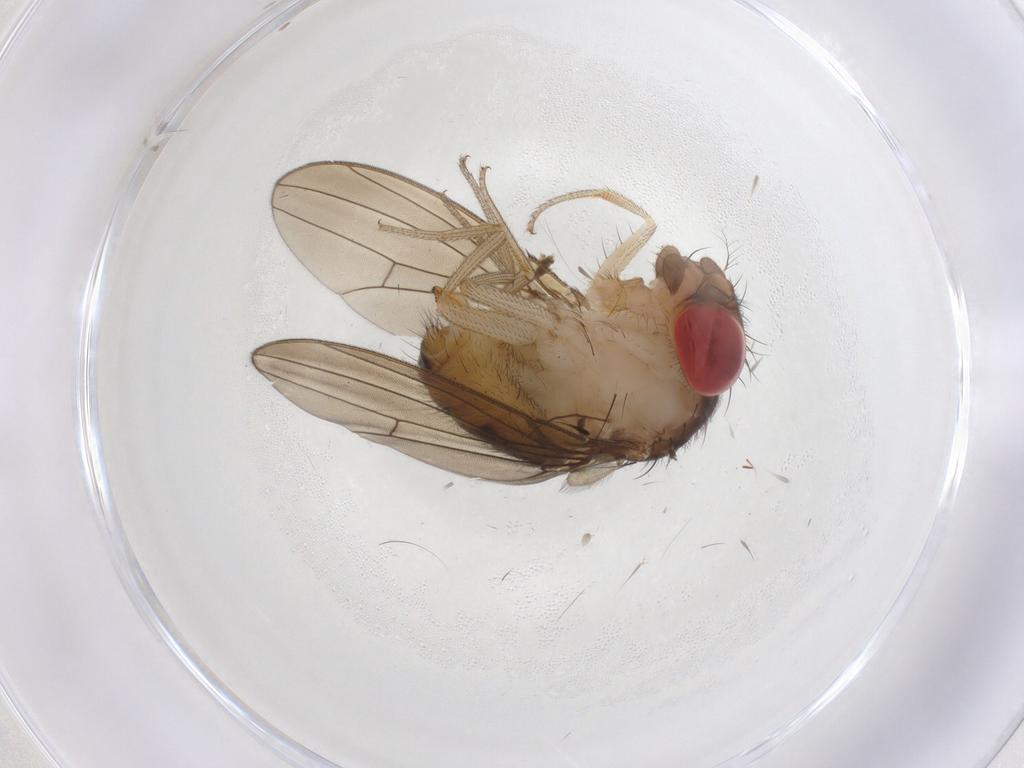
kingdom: Animalia
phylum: Arthropoda
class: Insecta
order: Diptera
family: Drosophilidae
